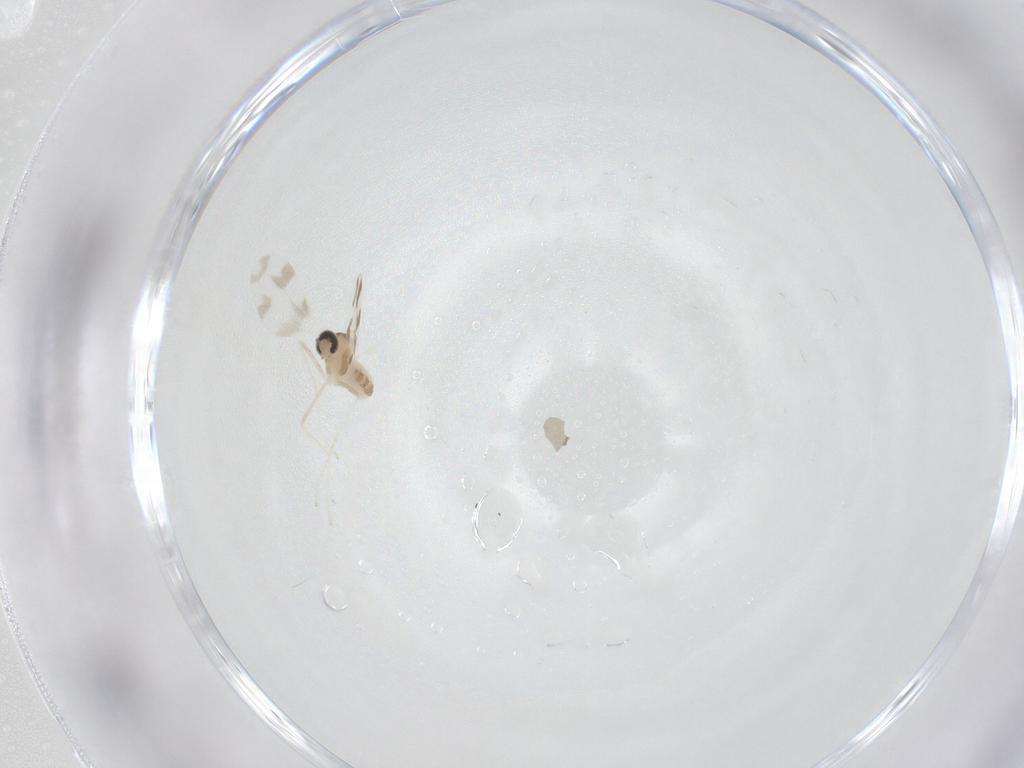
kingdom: Animalia
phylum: Arthropoda
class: Insecta
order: Diptera
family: Cecidomyiidae
